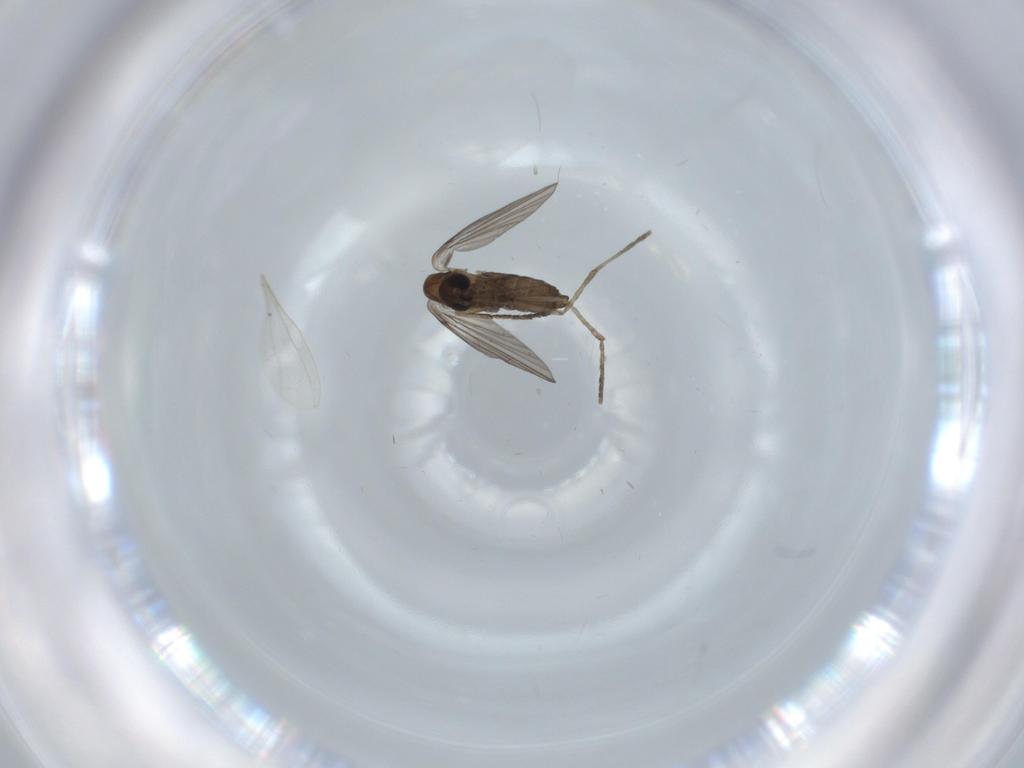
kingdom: Animalia
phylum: Arthropoda
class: Insecta
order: Diptera
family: Psychodidae
